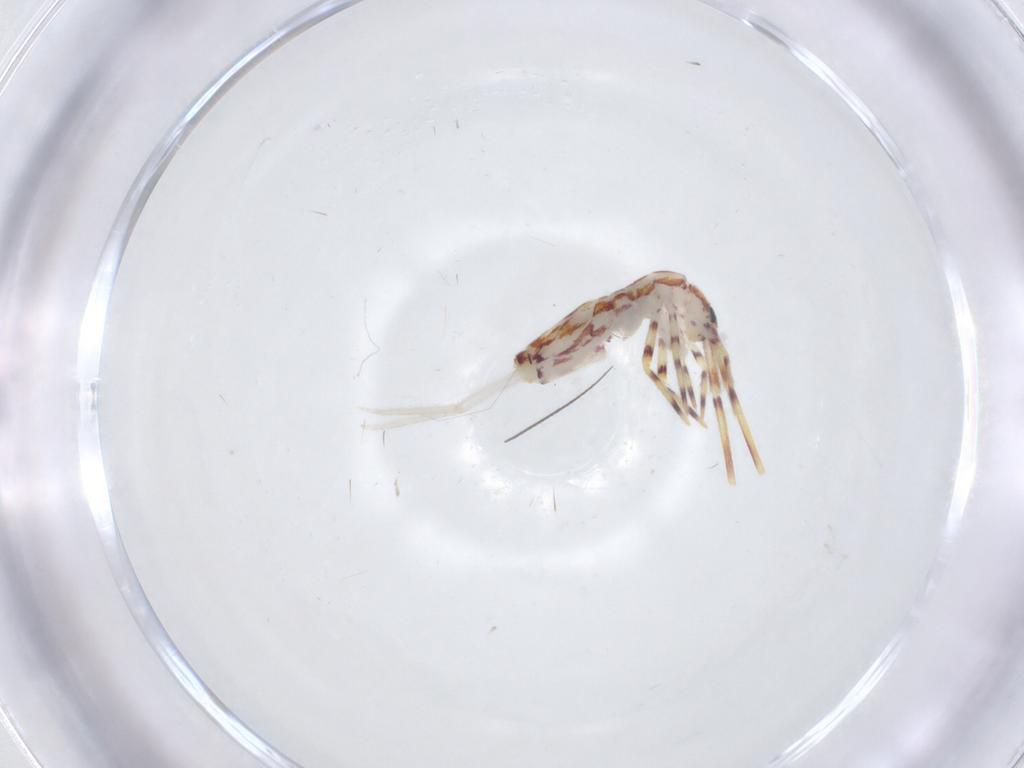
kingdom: Animalia
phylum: Arthropoda
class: Collembola
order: Entomobryomorpha
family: Entomobryidae
